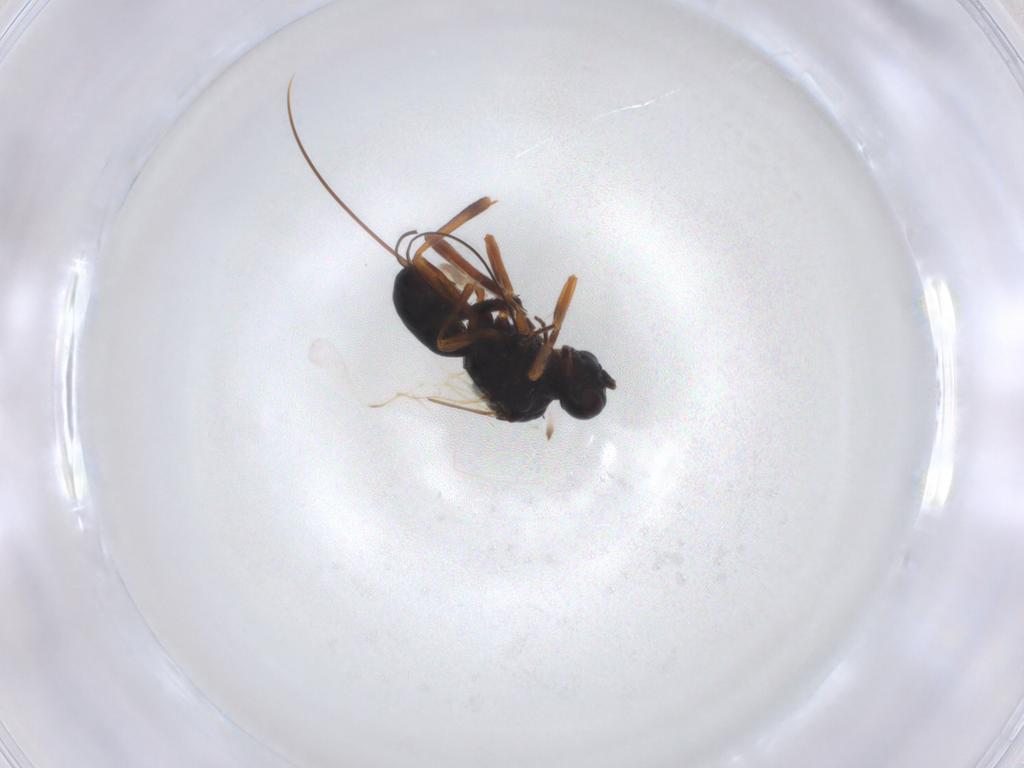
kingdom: Animalia
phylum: Arthropoda
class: Insecta
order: Hymenoptera
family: Braconidae
